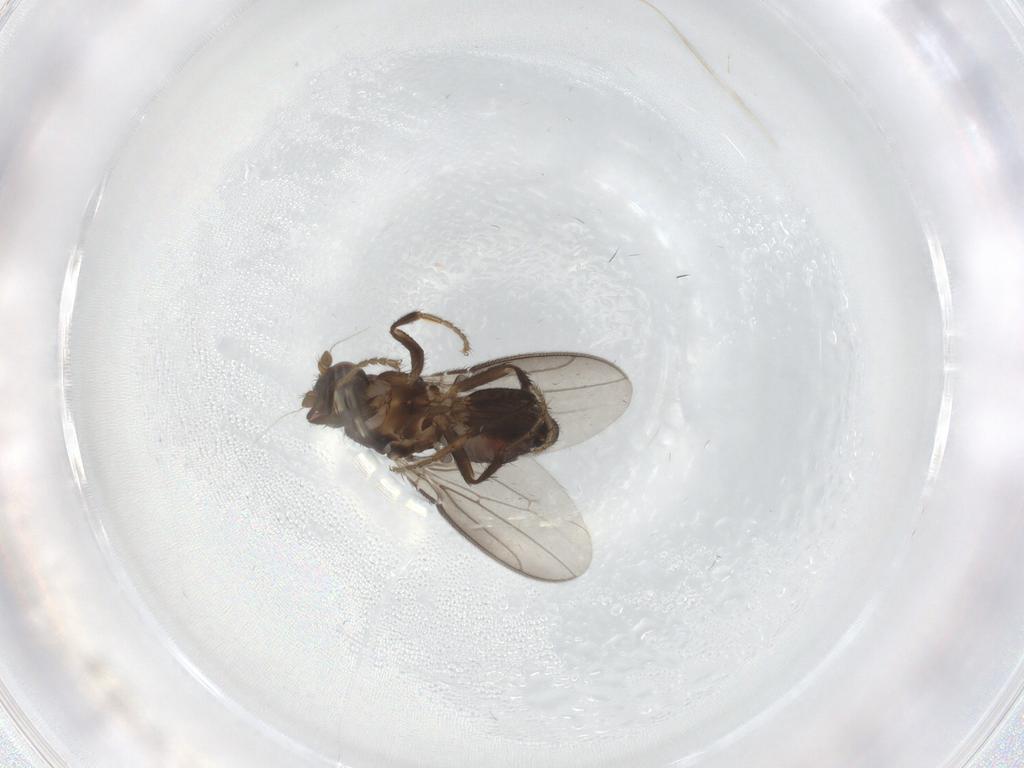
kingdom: Animalia
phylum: Arthropoda
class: Insecta
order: Diptera
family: Sphaeroceridae
